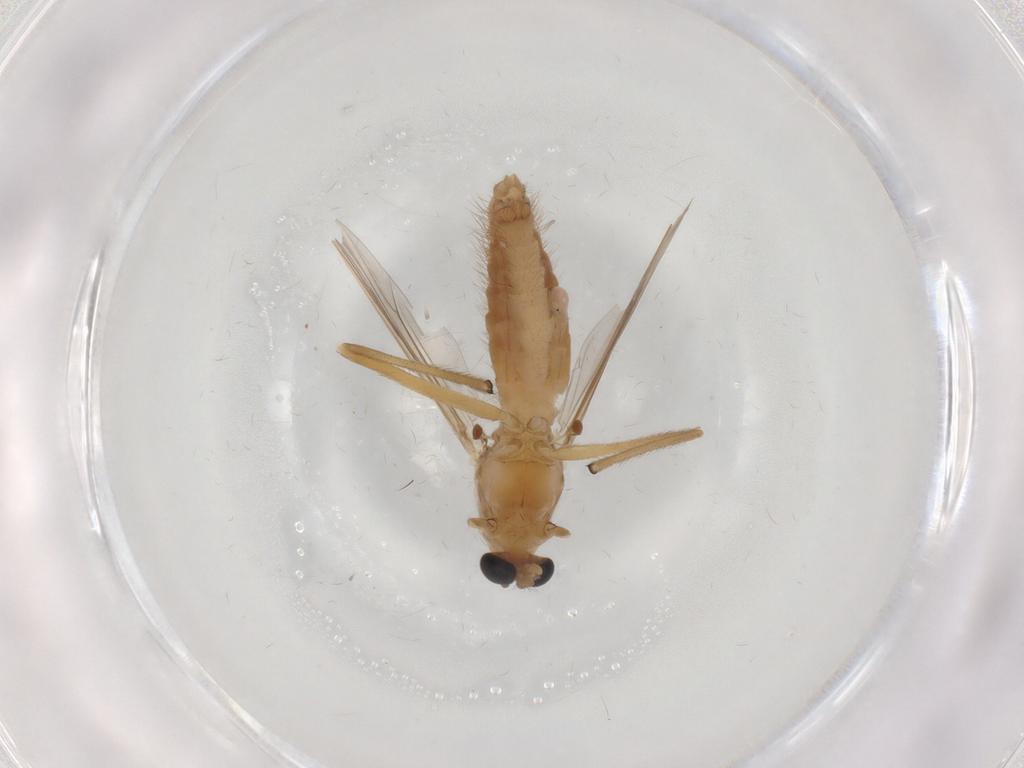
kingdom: Animalia
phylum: Arthropoda
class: Insecta
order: Diptera
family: Chironomidae
